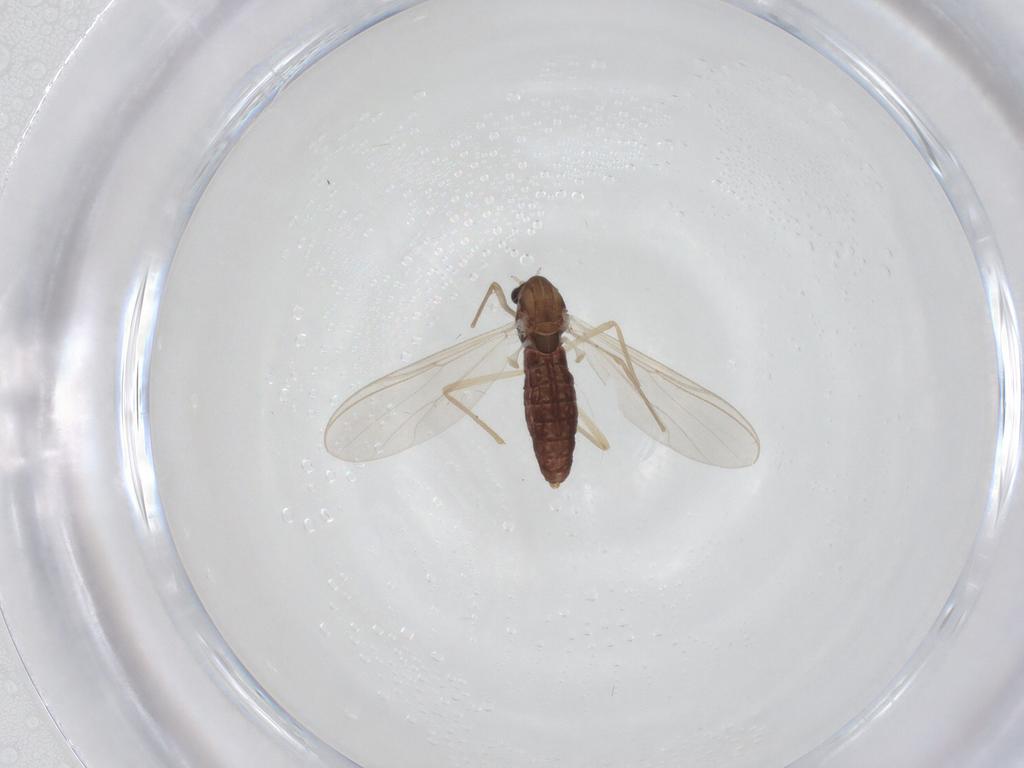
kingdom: Animalia
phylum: Arthropoda
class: Insecta
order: Diptera
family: Chironomidae
